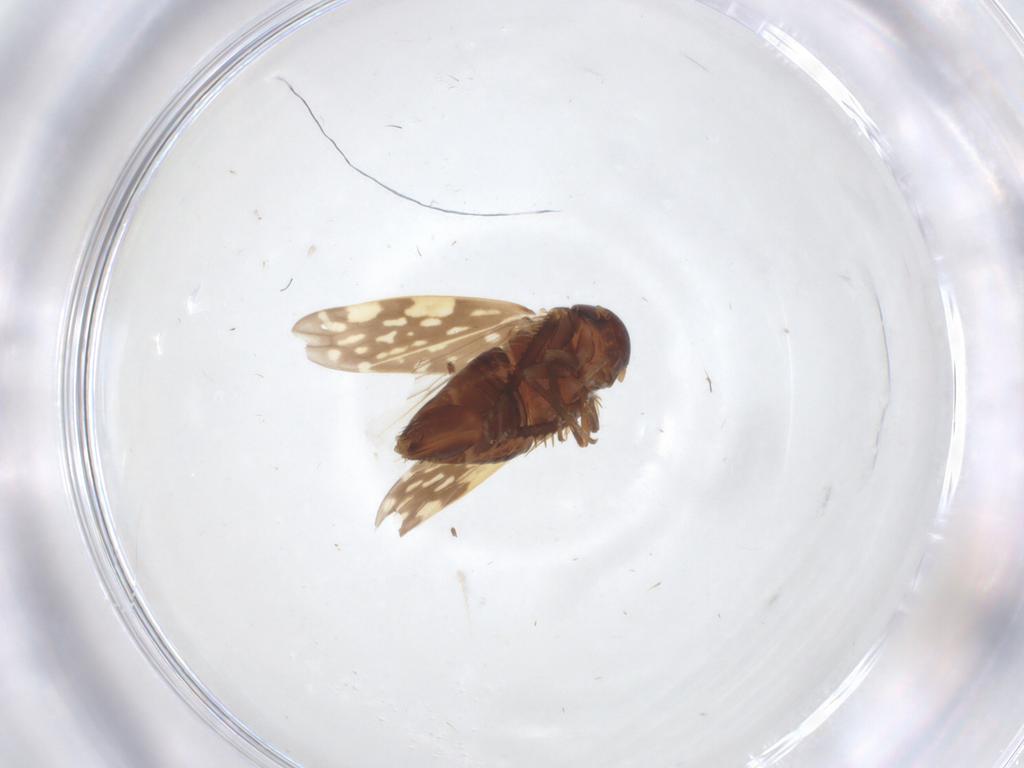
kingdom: Animalia
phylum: Arthropoda
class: Insecta
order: Hemiptera
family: Cicadellidae
